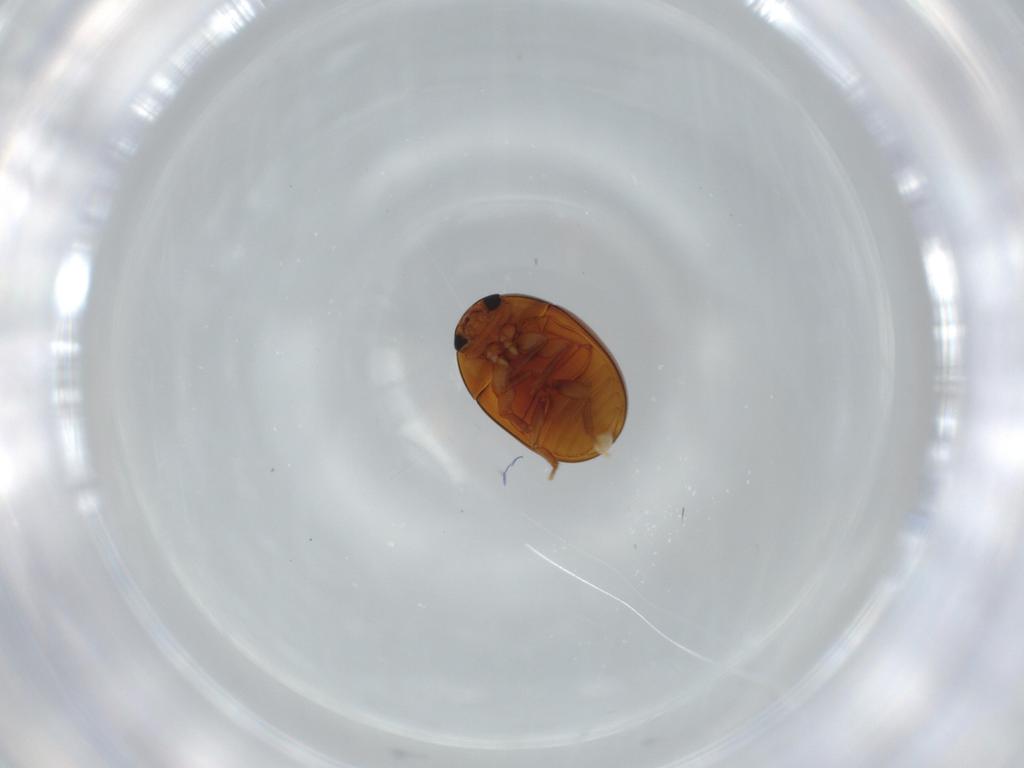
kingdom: Animalia
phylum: Arthropoda
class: Insecta
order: Coleoptera
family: Phalacridae
